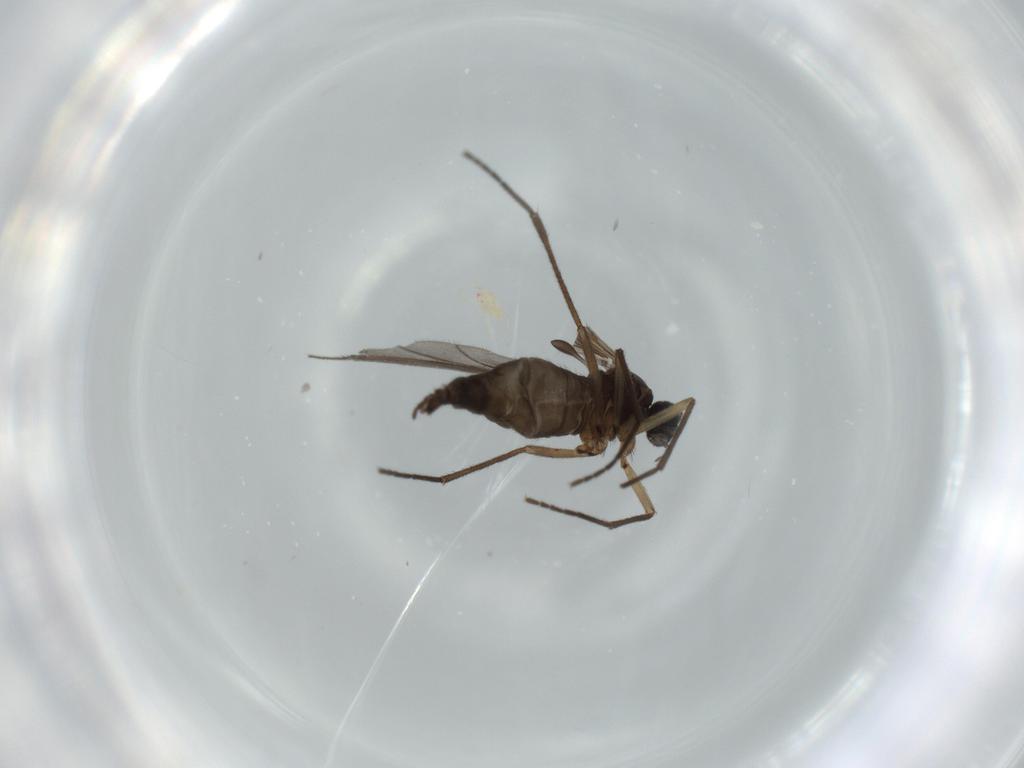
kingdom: Animalia
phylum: Arthropoda
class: Insecta
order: Diptera
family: Sciaridae
